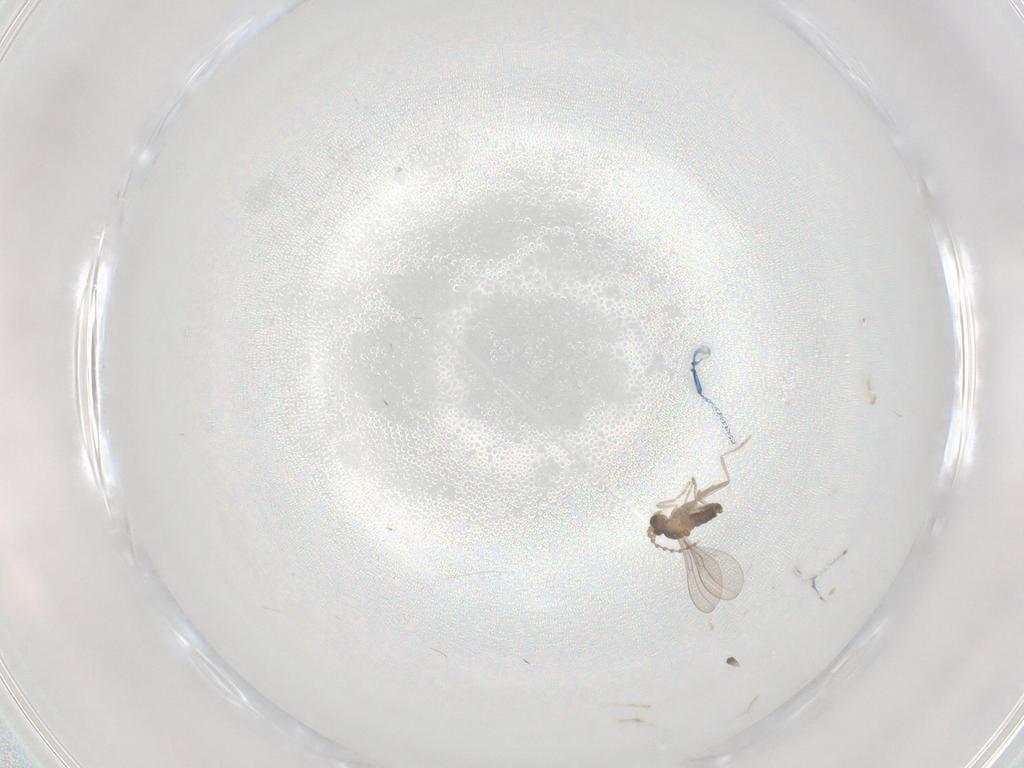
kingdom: Animalia
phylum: Arthropoda
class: Insecta
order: Diptera
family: Cecidomyiidae
